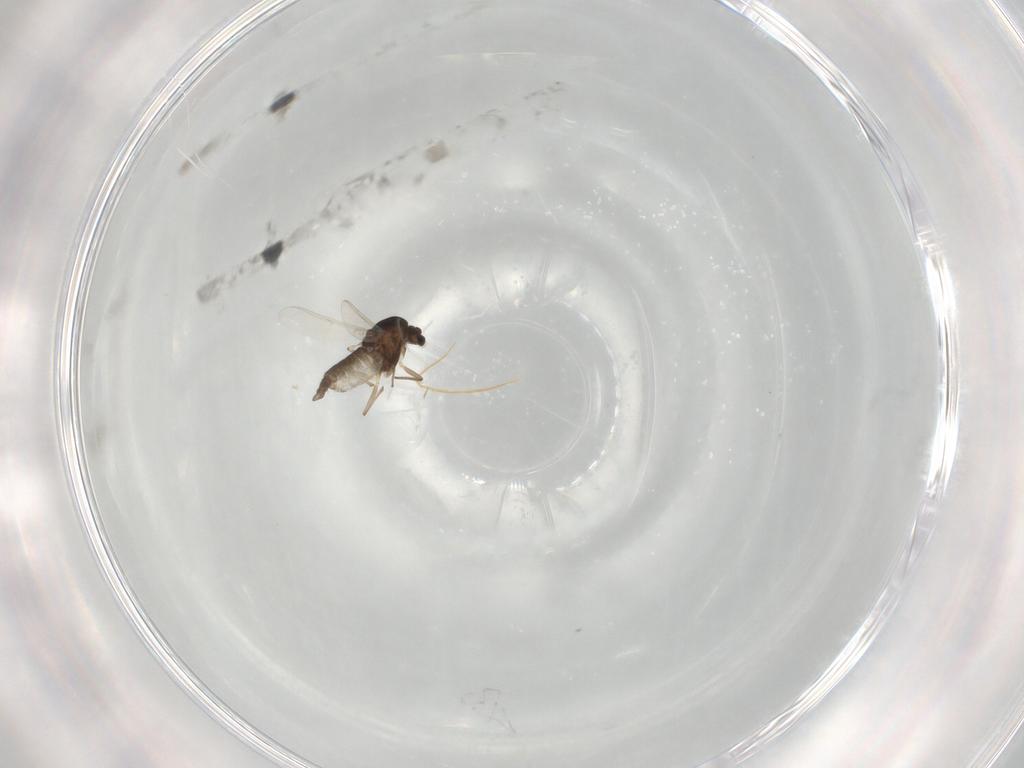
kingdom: Animalia
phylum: Arthropoda
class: Insecta
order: Diptera
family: Chironomidae
